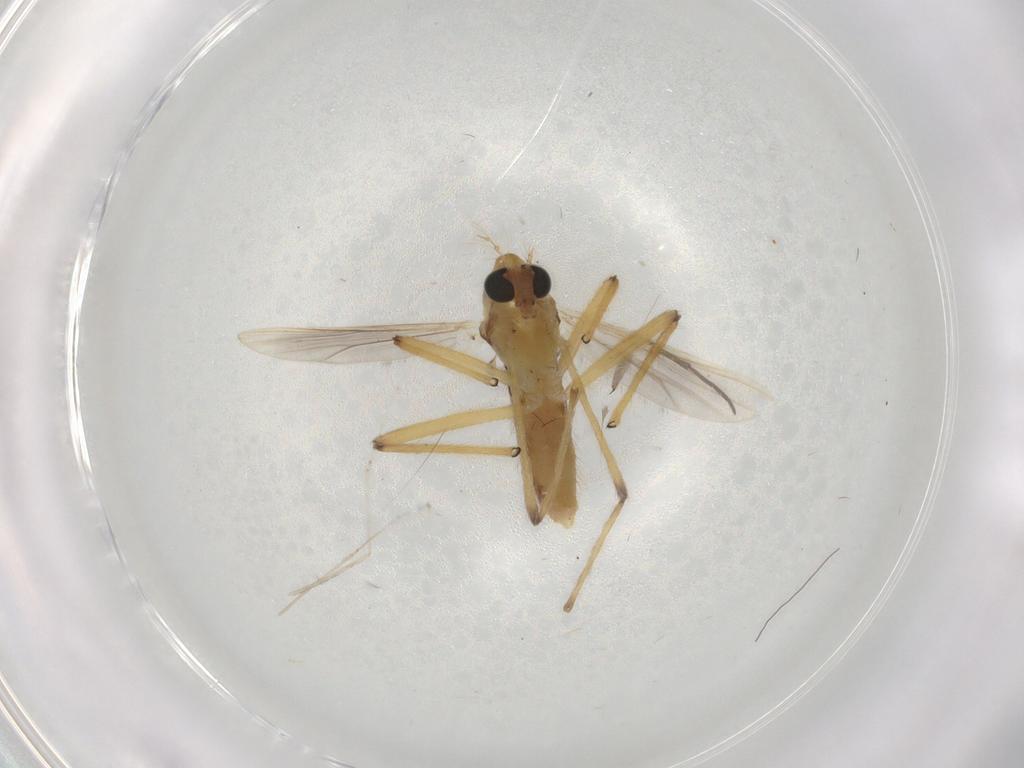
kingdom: Animalia
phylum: Arthropoda
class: Insecta
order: Diptera
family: Sciaridae
